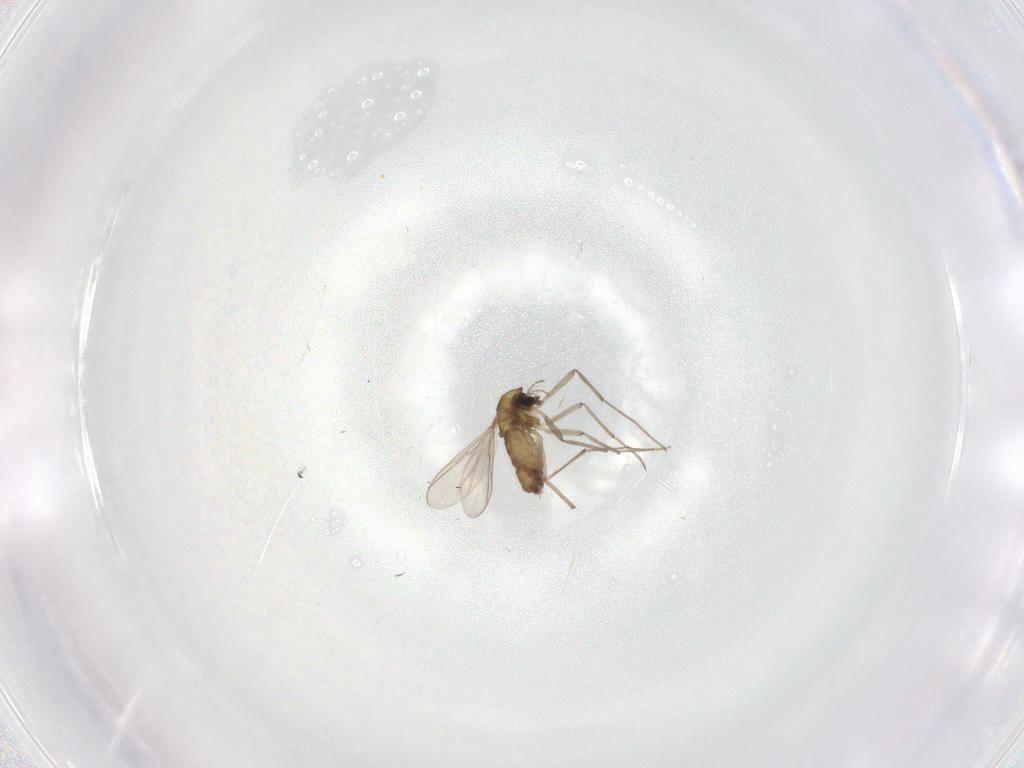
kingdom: Animalia
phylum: Arthropoda
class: Insecta
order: Diptera
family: Chironomidae
